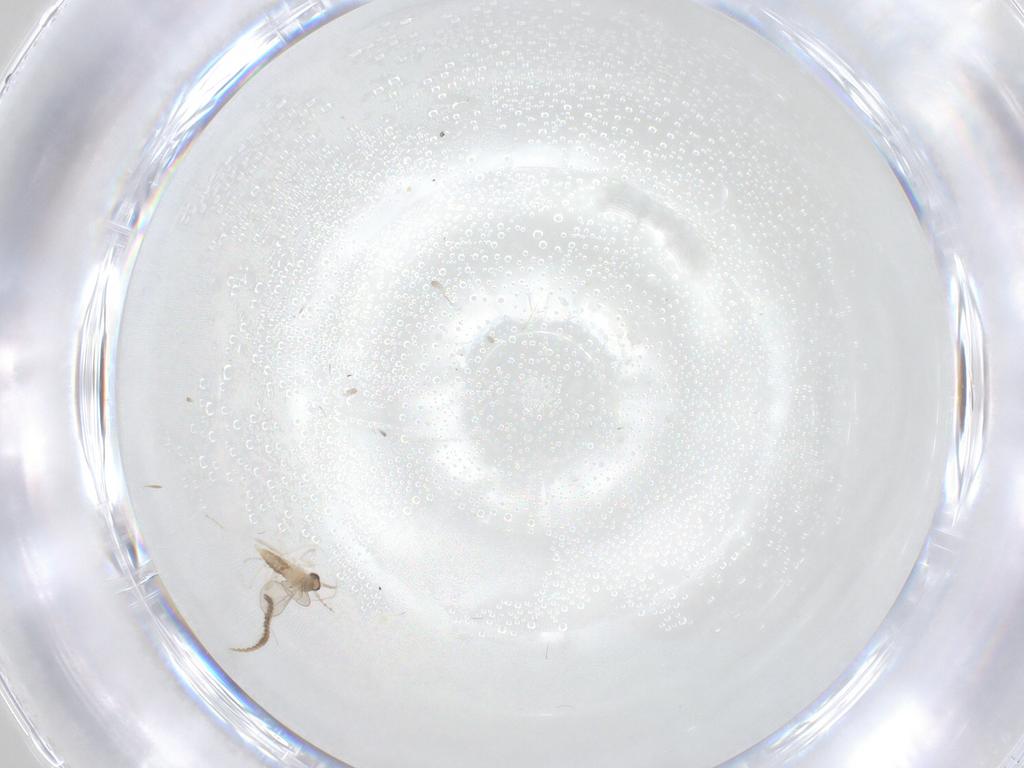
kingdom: Animalia
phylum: Arthropoda
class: Insecta
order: Diptera
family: Cecidomyiidae
